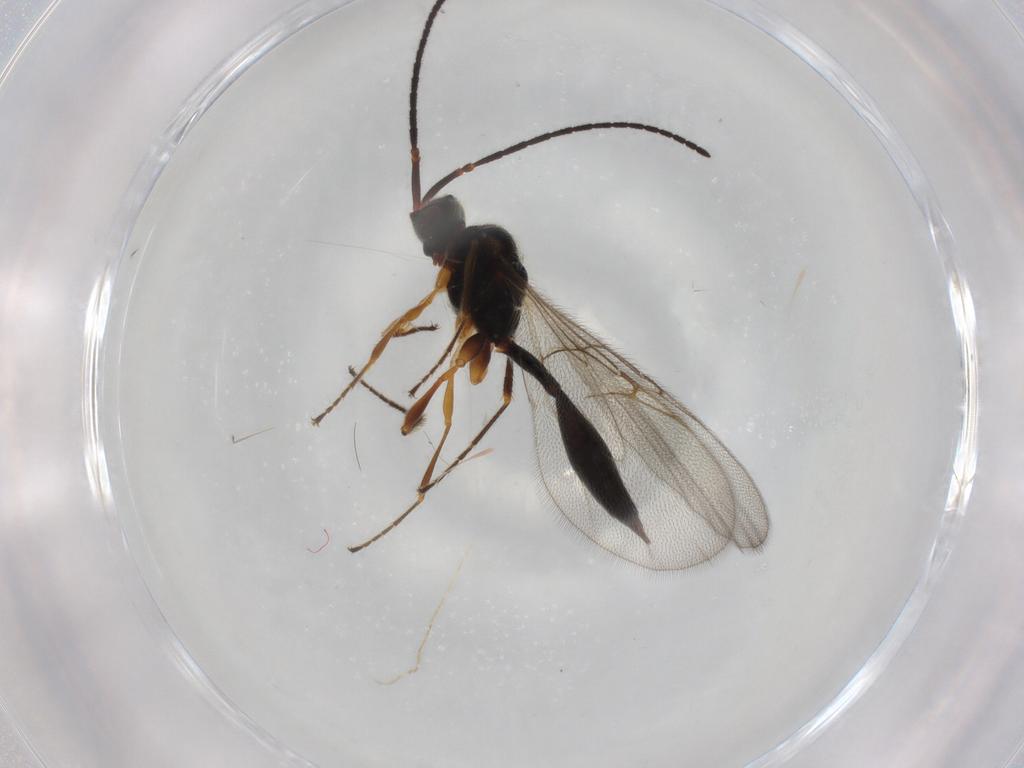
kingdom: Animalia
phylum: Arthropoda
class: Insecta
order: Hymenoptera
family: Diapriidae
